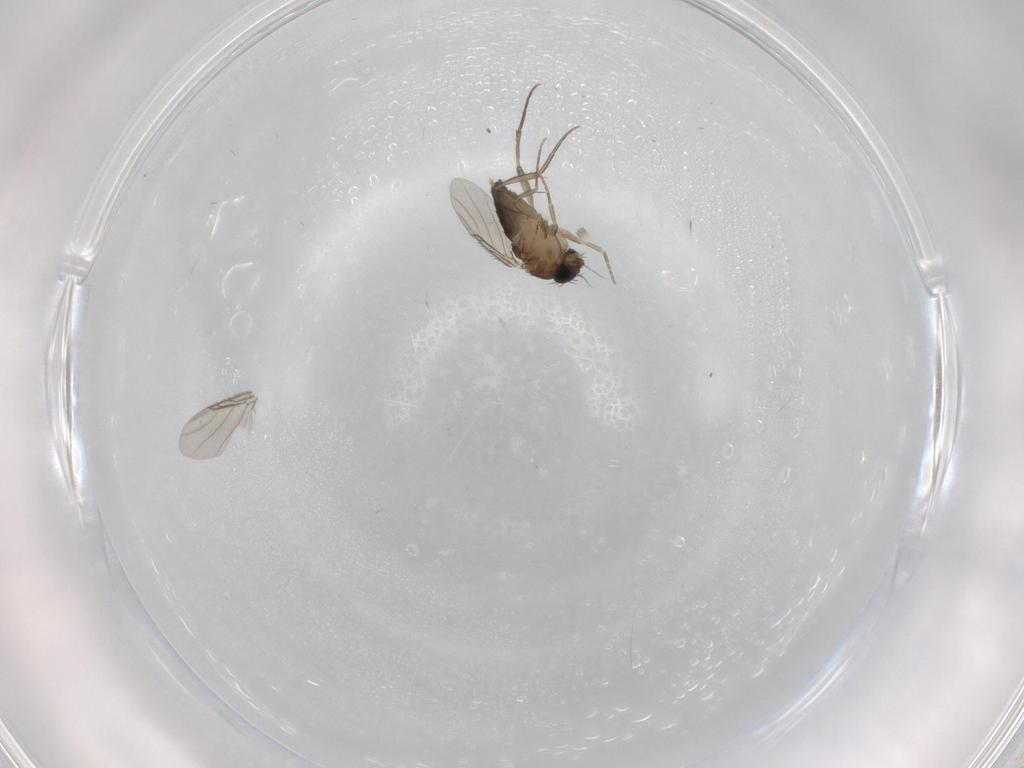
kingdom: Animalia
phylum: Arthropoda
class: Insecta
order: Diptera
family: Phoridae
